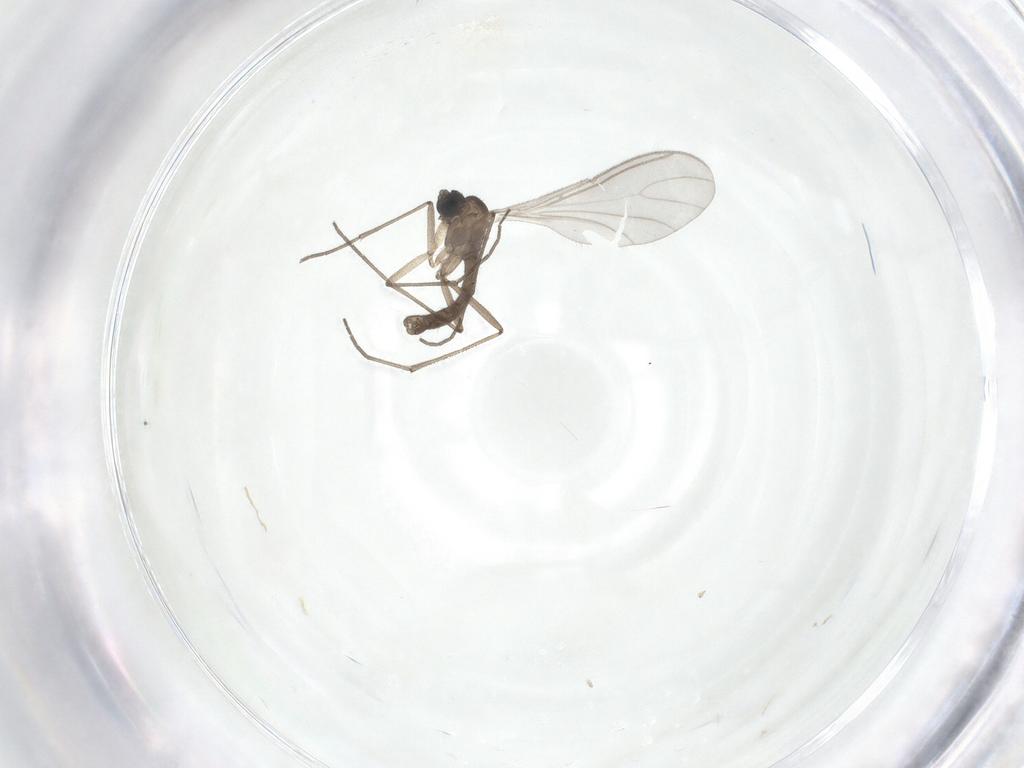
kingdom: Animalia
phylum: Arthropoda
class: Insecta
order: Diptera
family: Sciaridae
